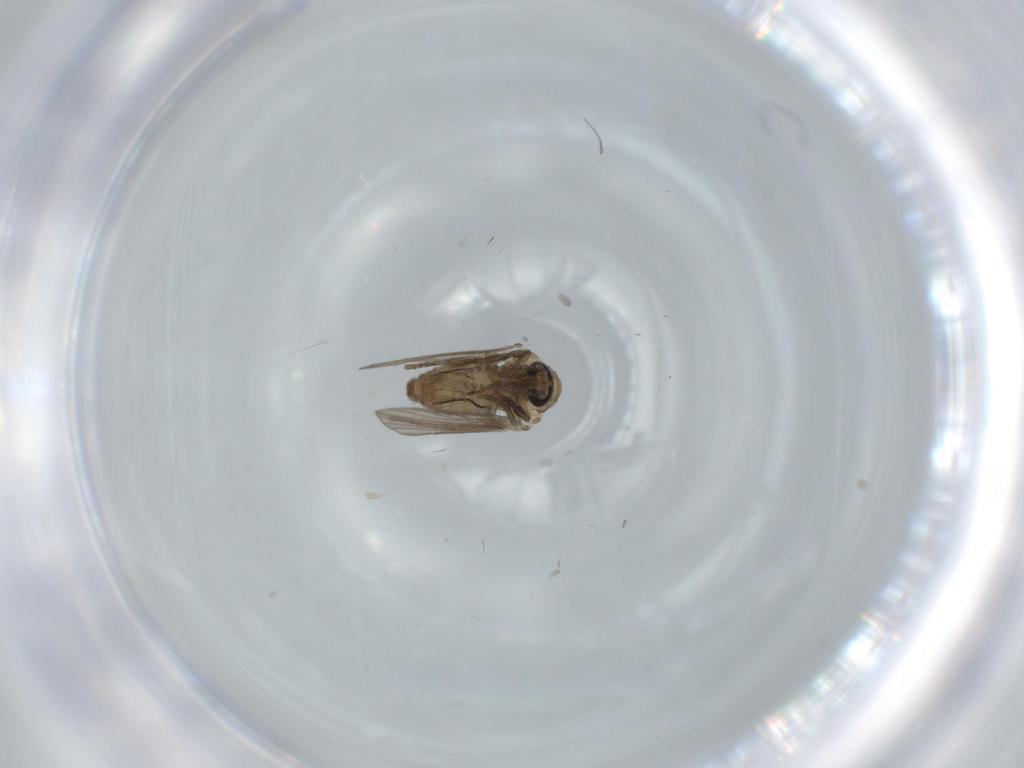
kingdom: Animalia
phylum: Arthropoda
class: Insecta
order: Diptera
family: Psychodidae
